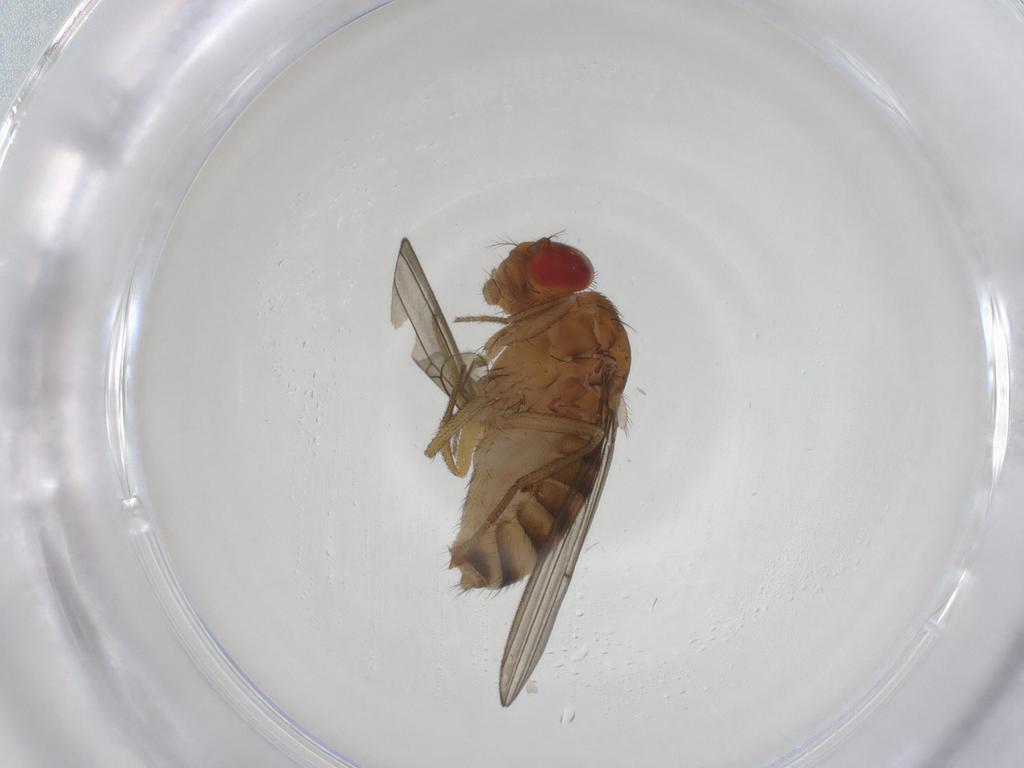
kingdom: Animalia
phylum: Arthropoda
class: Insecta
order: Diptera
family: Drosophilidae
